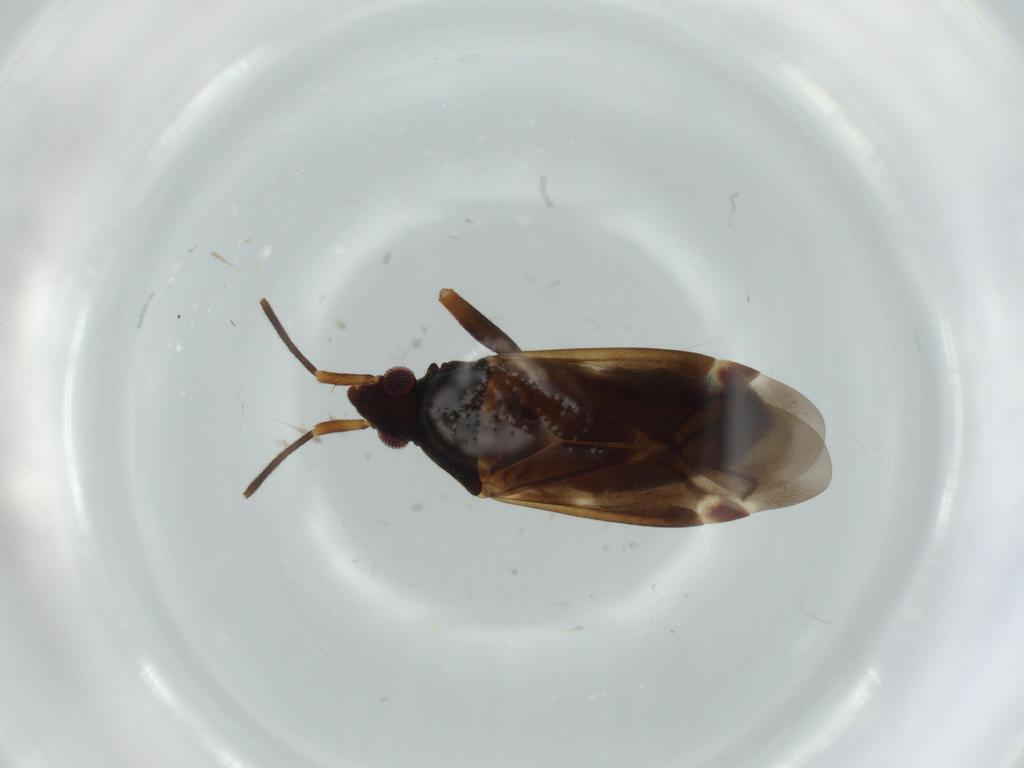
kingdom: Animalia
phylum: Arthropoda
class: Insecta
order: Hemiptera
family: Miridae
